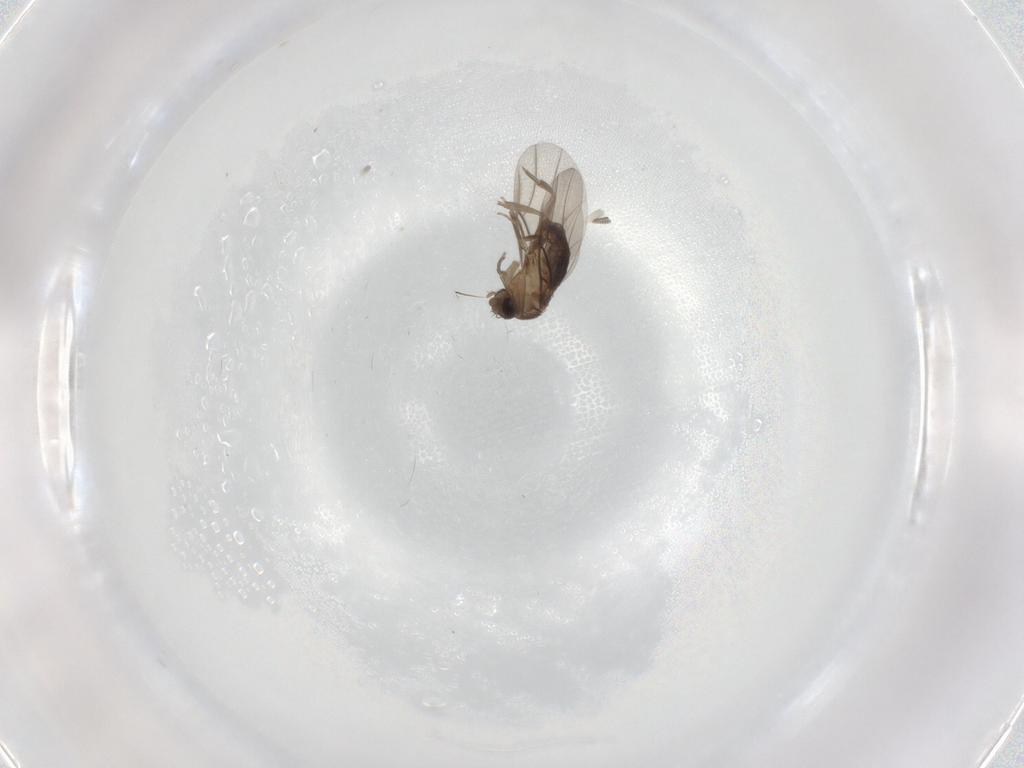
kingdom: Animalia
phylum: Arthropoda
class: Insecta
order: Diptera
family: Phoridae
